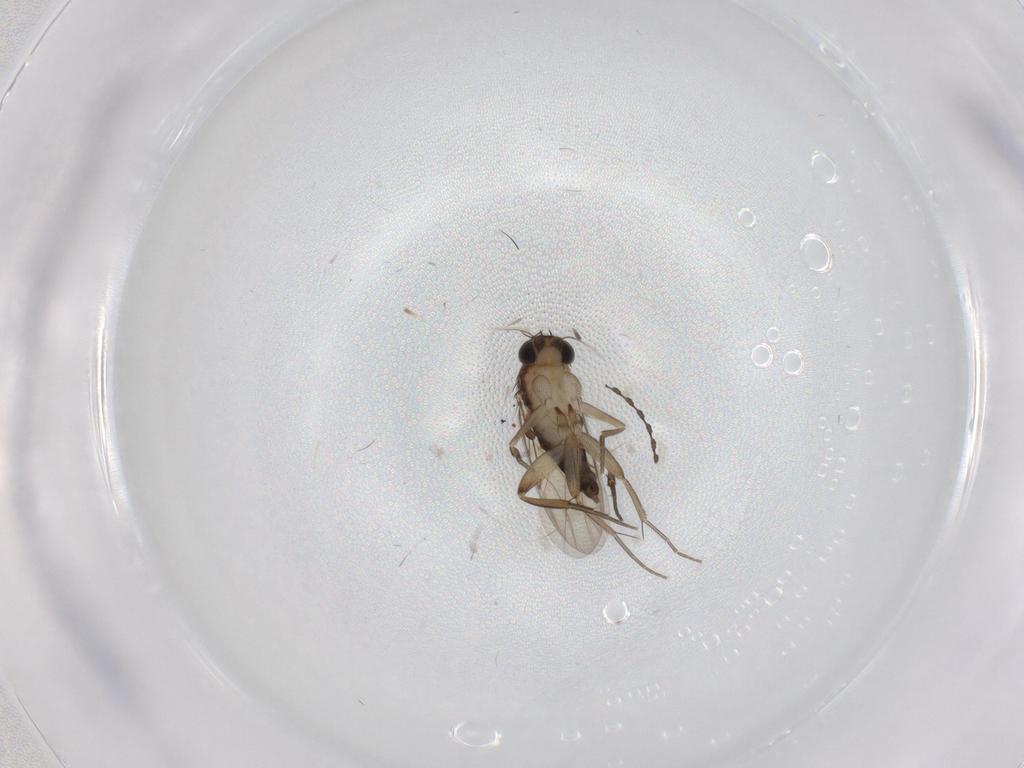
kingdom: Animalia
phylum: Arthropoda
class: Insecta
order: Diptera
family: Phoridae
